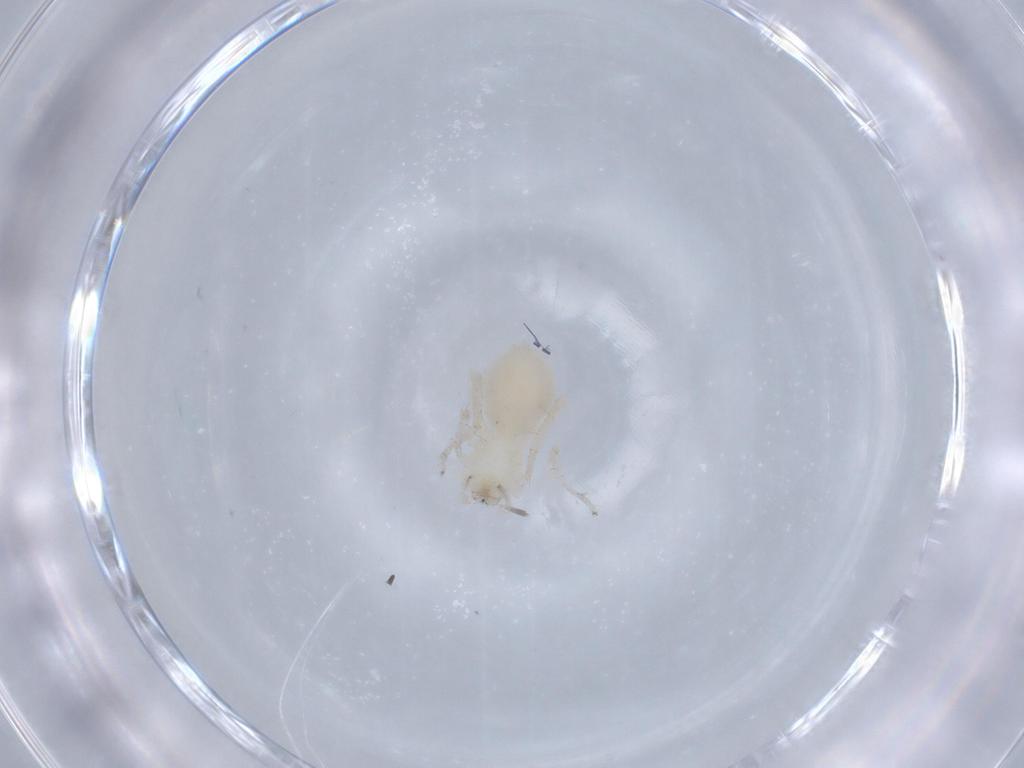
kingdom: Animalia
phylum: Arthropoda
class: Arachnida
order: Araneae
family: Anyphaenidae
